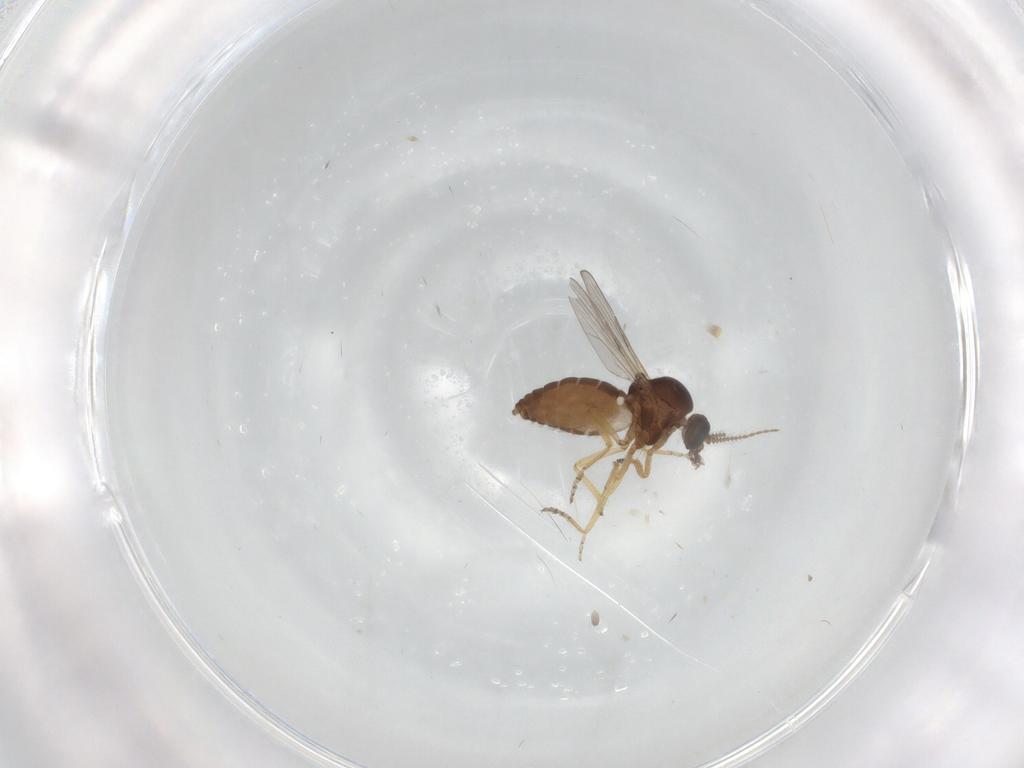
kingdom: Animalia
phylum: Arthropoda
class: Insecta
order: Diptera
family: Ceratopogonidae
